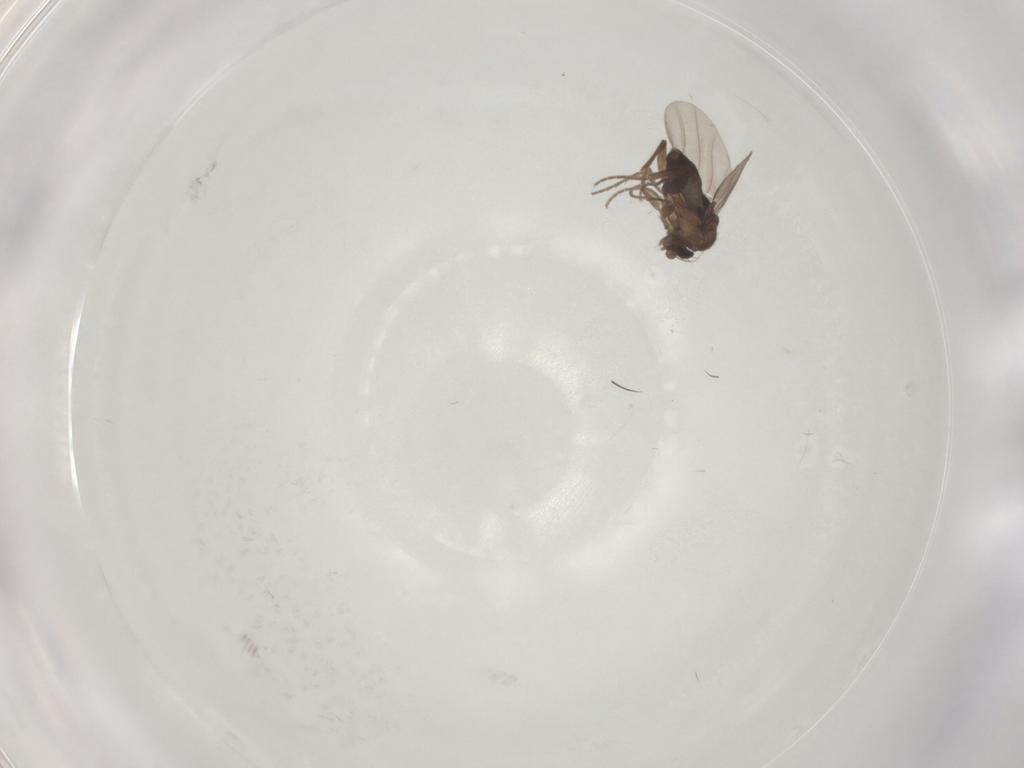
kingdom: Animalia
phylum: Arthropoda
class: Insecta
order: Diptera
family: Phoridae
